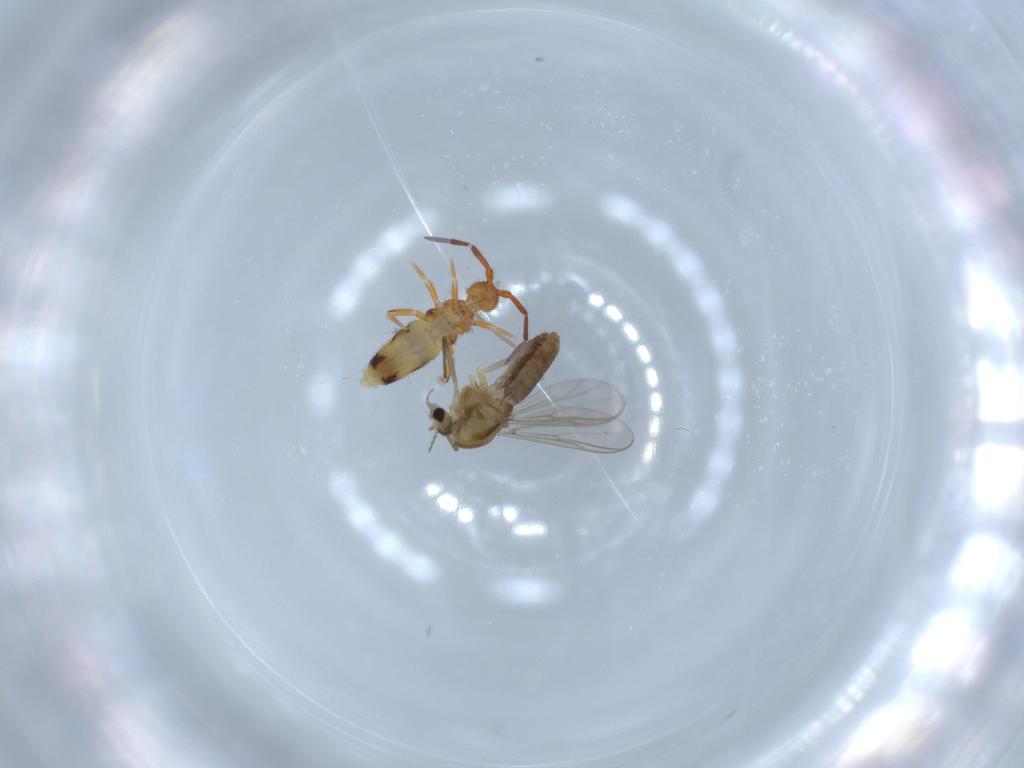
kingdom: Animalia
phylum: Arthropoda
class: Insecta
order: Diptera
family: Chironomidae
